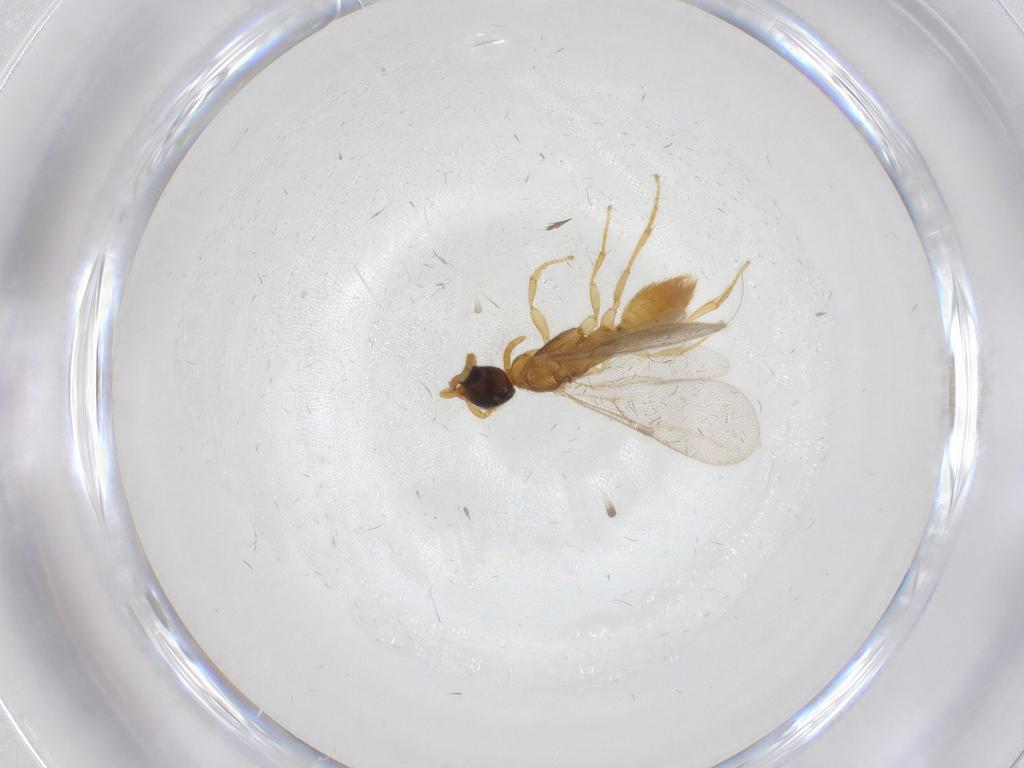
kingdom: Animalia
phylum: Arthropoda
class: Insecta
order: Hymenoptera
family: Bethylidae
